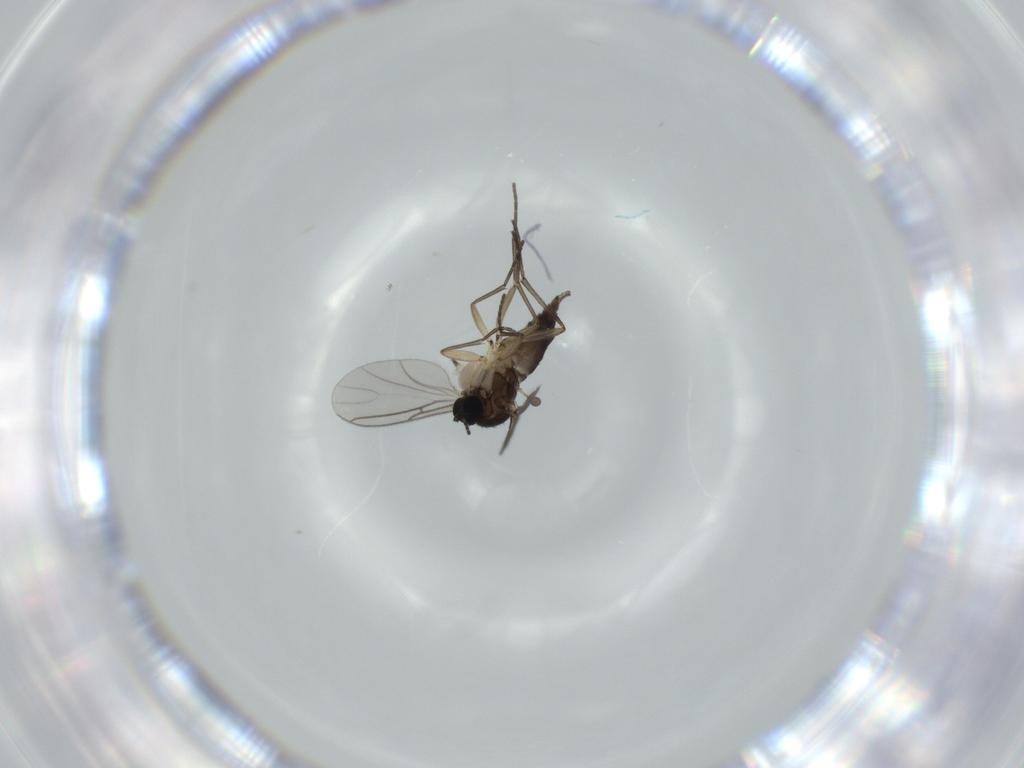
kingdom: Animalia
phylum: Arthropoda
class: Insecta
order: Diptera
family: Sciaridae
